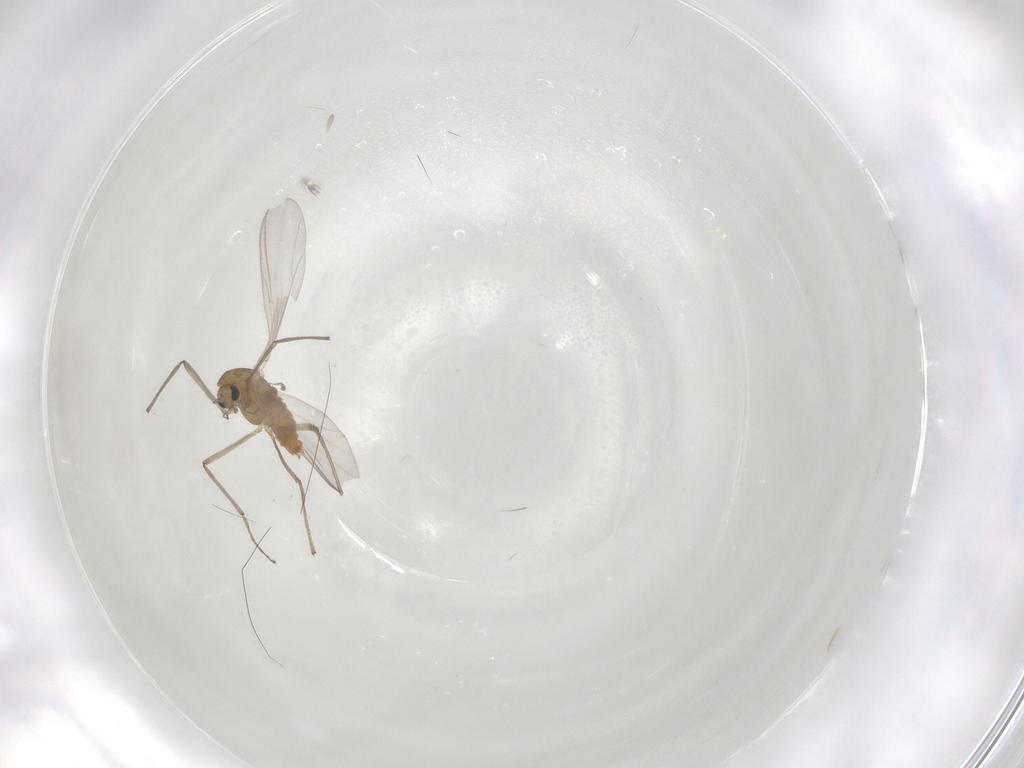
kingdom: Animalia
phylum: Arthropoda
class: Insecta
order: Diptera
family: Chironomidae
